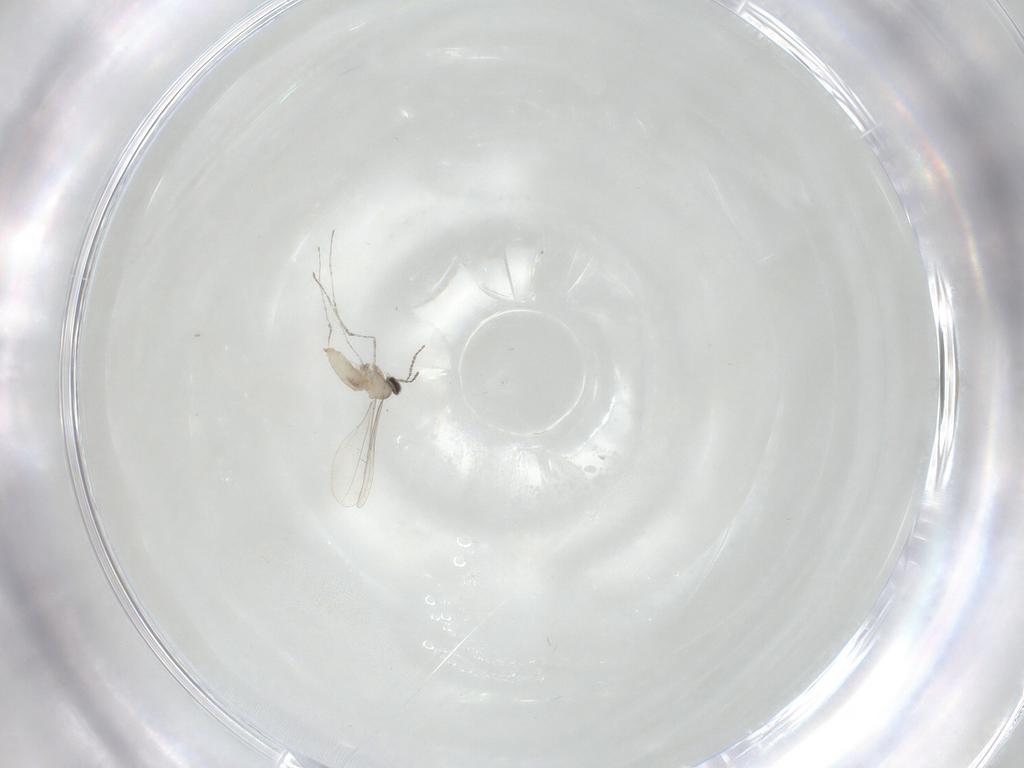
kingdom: Animalia
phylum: Arthropoda
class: Insecta
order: Diptera
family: Cecidomyiidae
